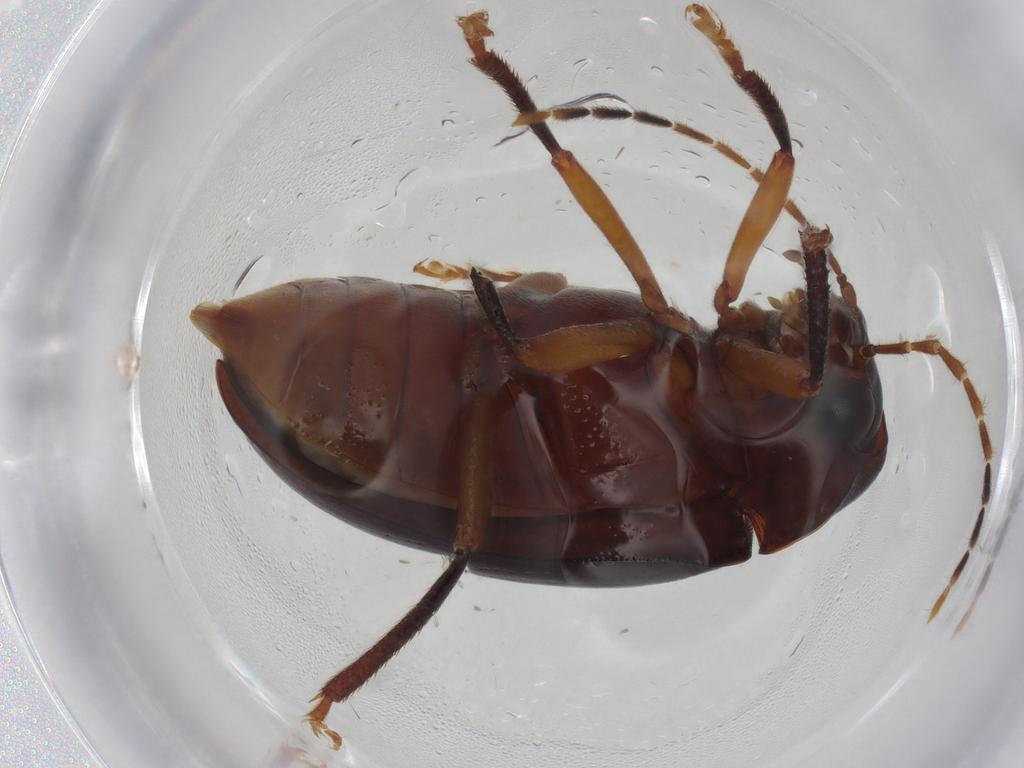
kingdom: Animalia
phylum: Arthropoda
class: Insecta
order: Coleoptera
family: Ptilodactylidae
